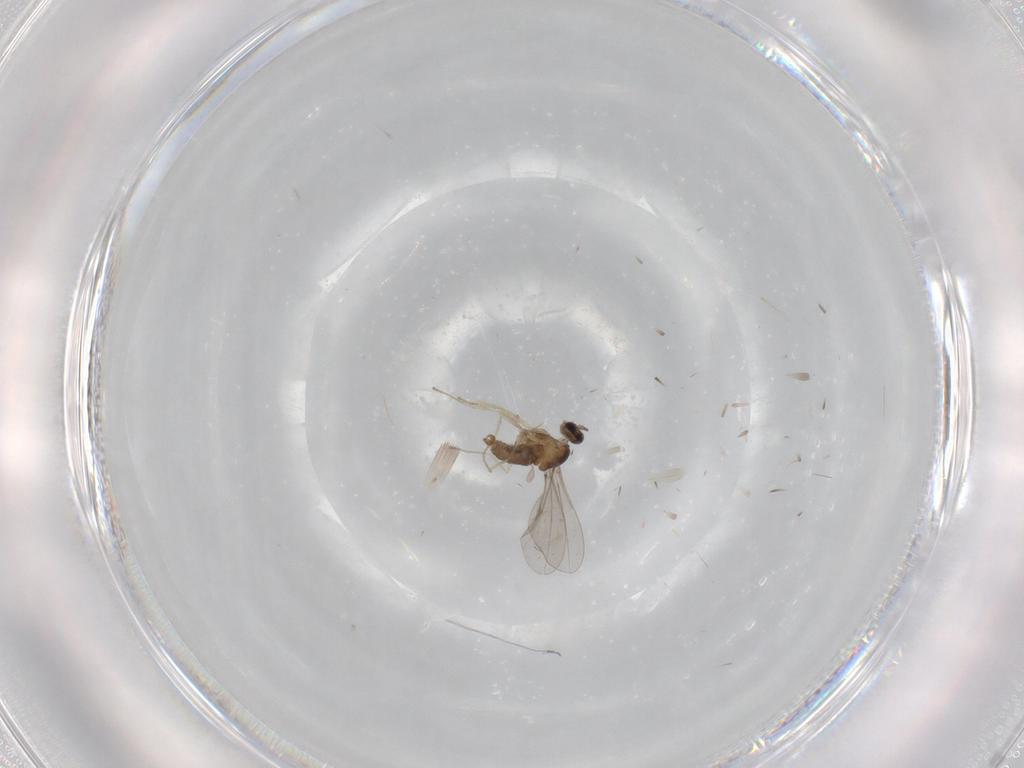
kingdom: Animalia
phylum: Arthropoda
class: Insecta
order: Diptera
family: Cecidomyiidae
